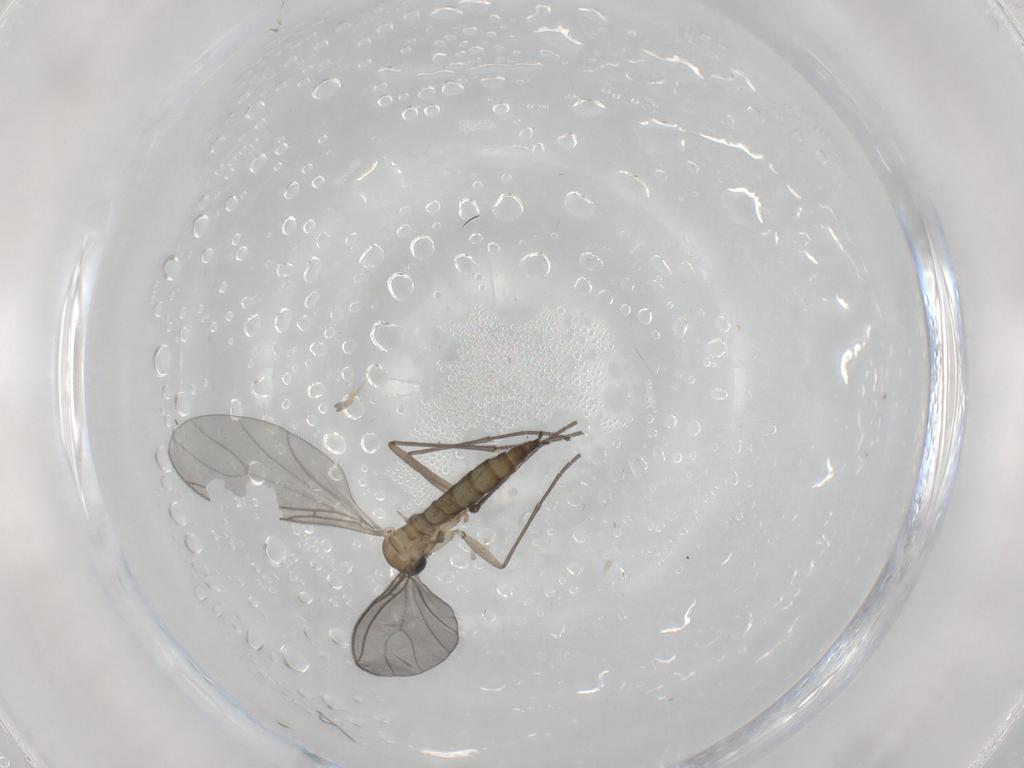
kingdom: Animalia
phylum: Arthropoda
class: Insecta
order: Diptera
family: Sciaridae
